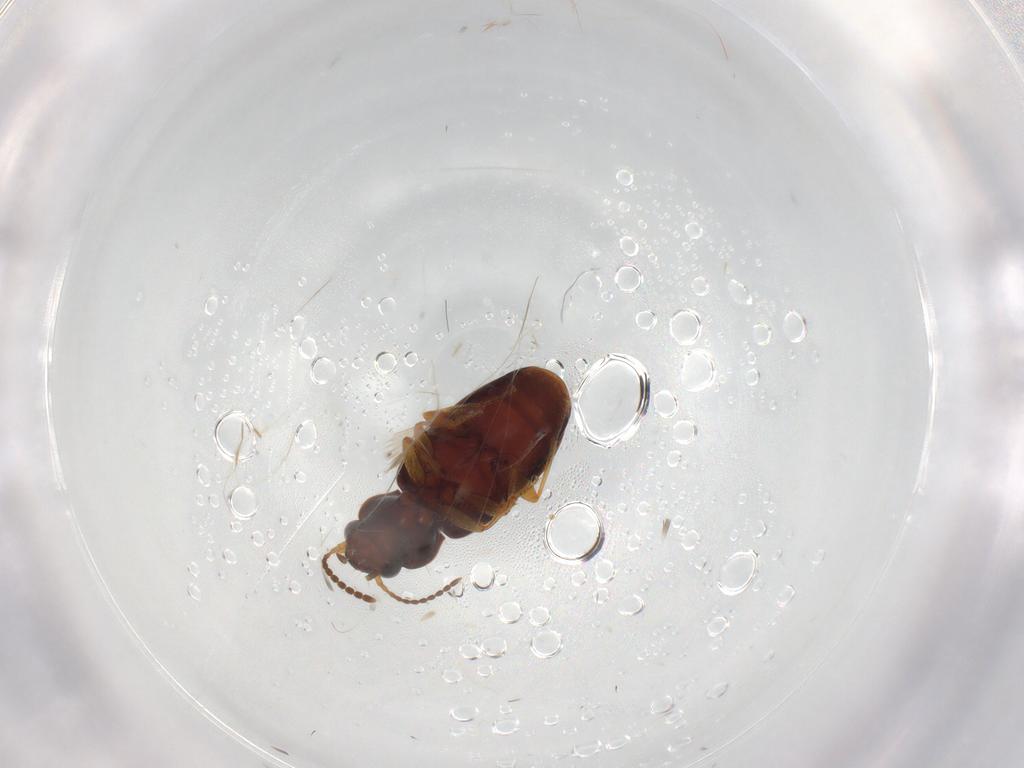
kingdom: Animalia
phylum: Arthropoda
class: Insecta
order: Coleoptera
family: Carabidae
